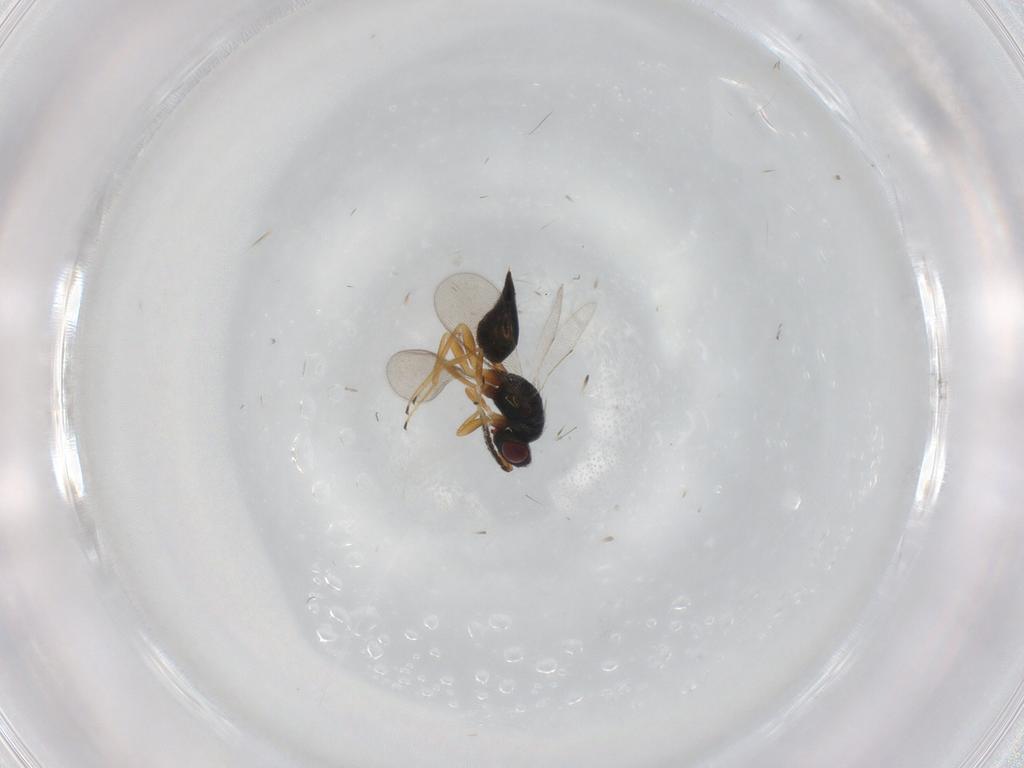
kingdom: Animalia
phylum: Arthropoda
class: Insecta
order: Hymenoptera
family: Tetracampidae
